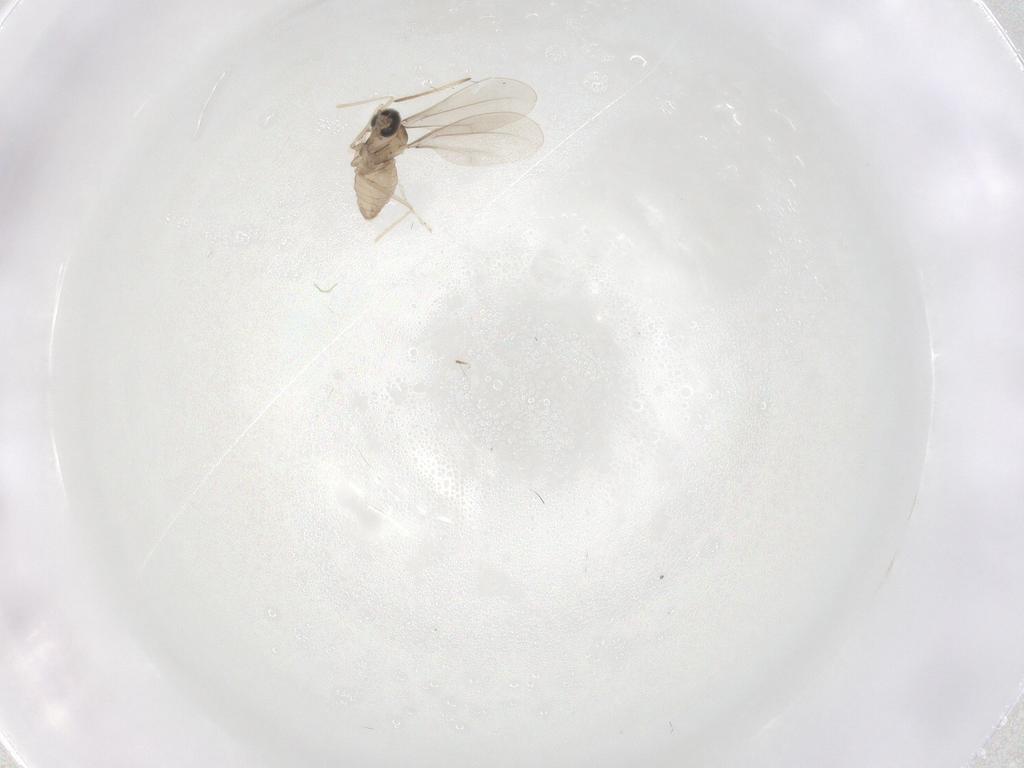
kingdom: Animalia
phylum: Arthropoda
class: Insecta
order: Diptera
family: Cecidomyiidae
